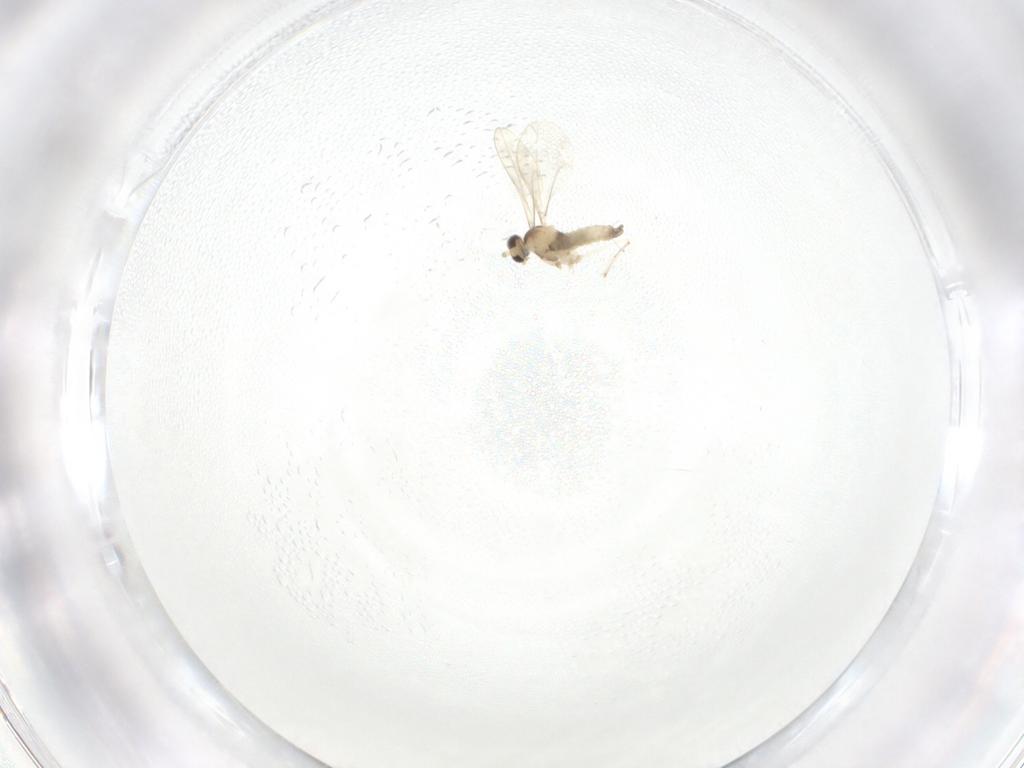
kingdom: Animalia
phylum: Arthropoda
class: Insecta
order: Diptera
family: Cecidomyiidae
